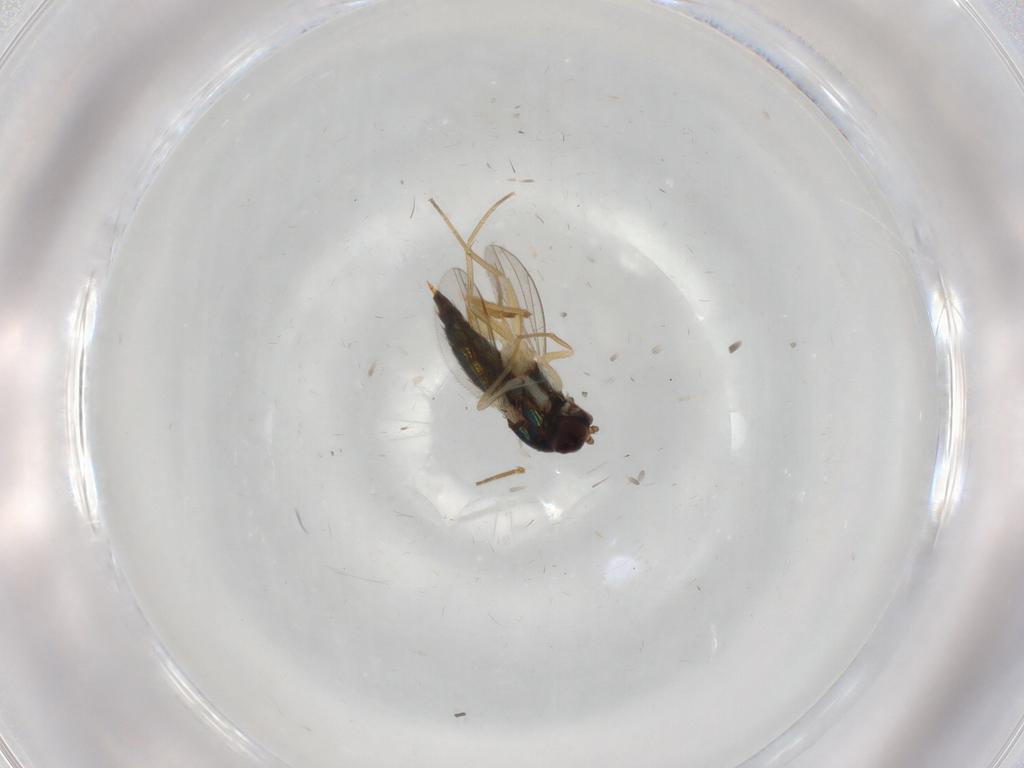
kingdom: Animalia
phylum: Arthropoda
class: Insecta
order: Diptera
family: Dolichopodidae
